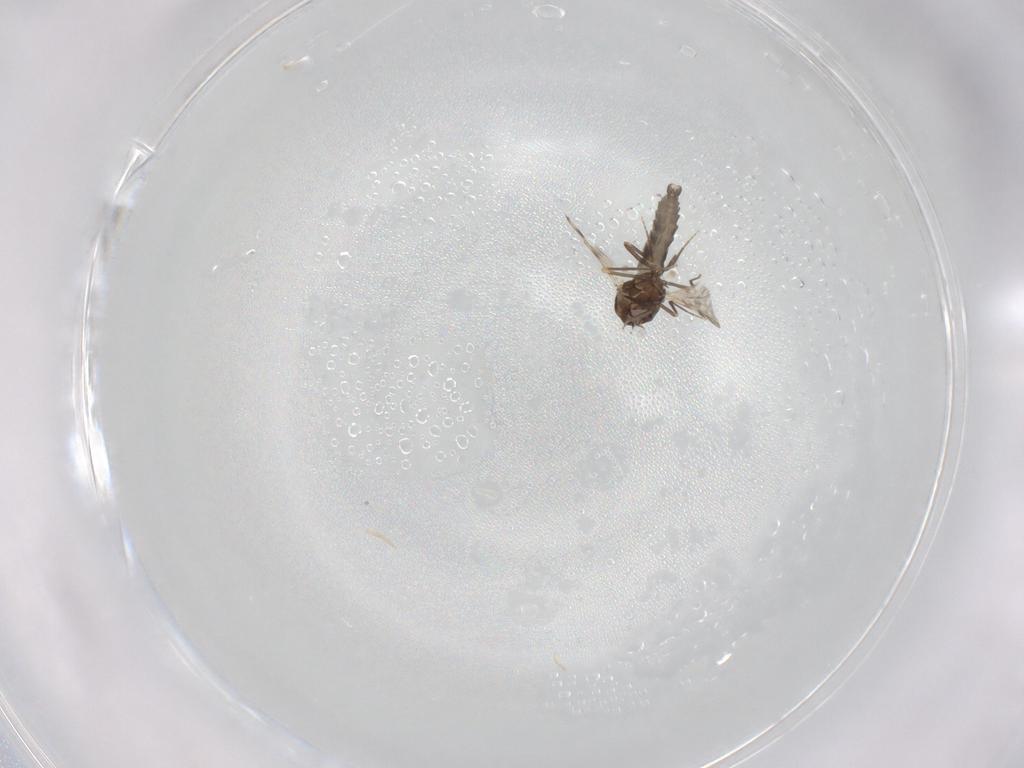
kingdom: Animalia
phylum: Arthropoda
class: Insecta
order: Diptera
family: Ceratopogonidae
